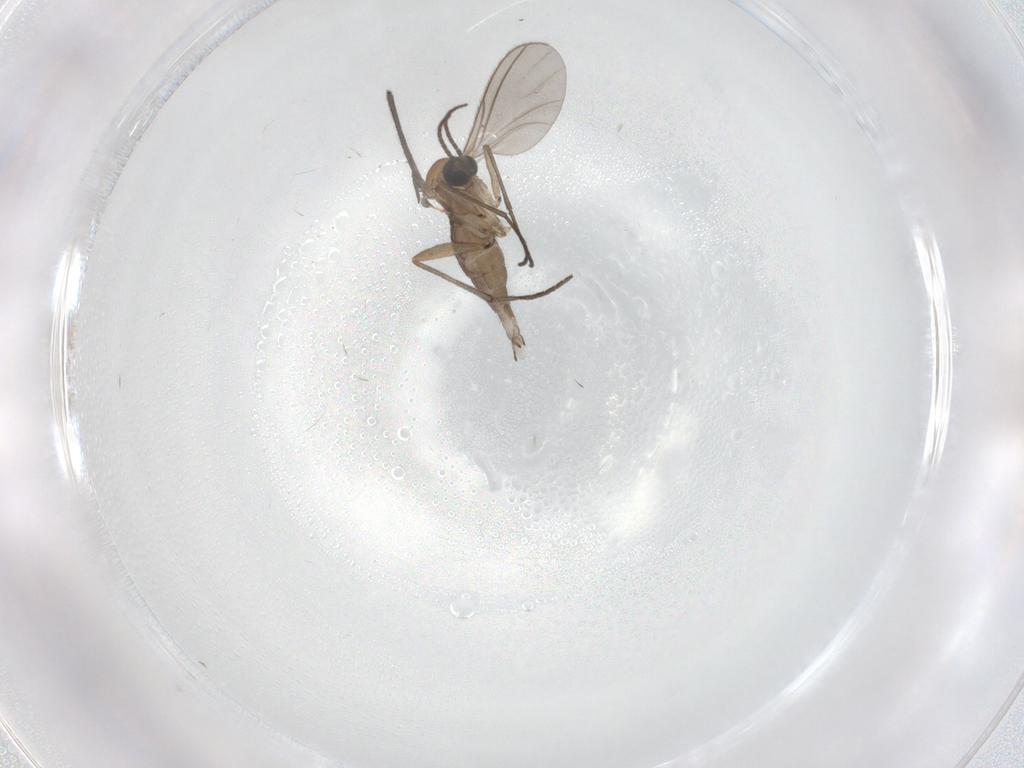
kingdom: Animalia
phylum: Arthropoda
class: Insecta
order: Diptera
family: Sciaridae
